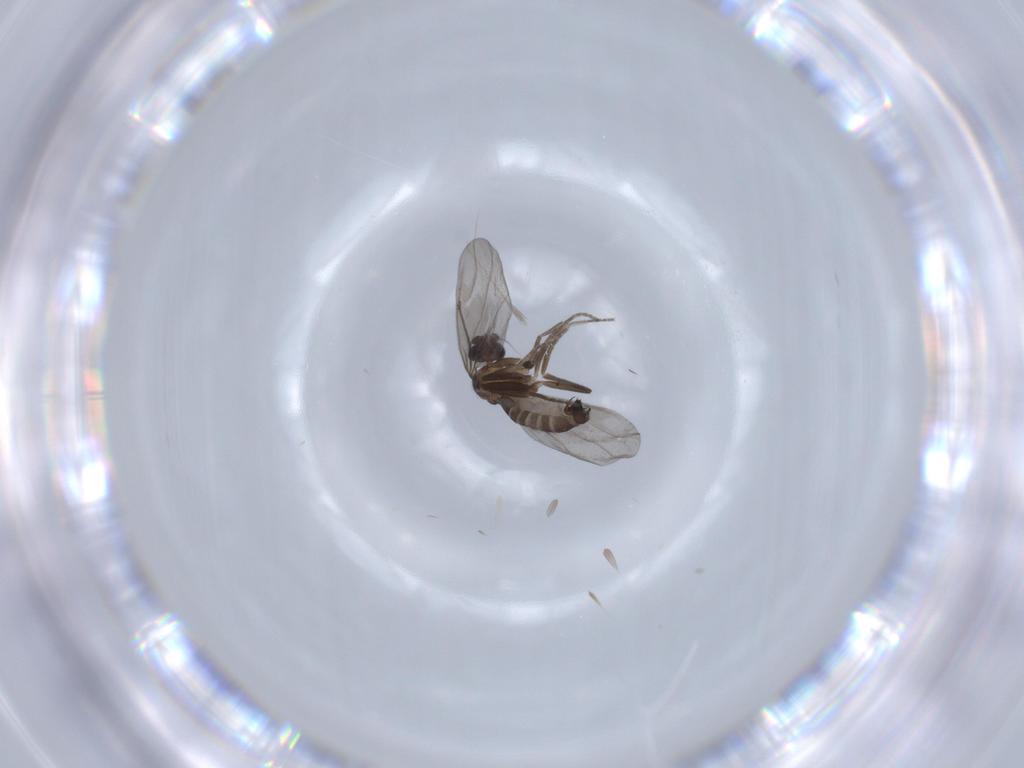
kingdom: Animalia
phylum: Arthropoda
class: Insecta
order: Diptera
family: Phoridae
